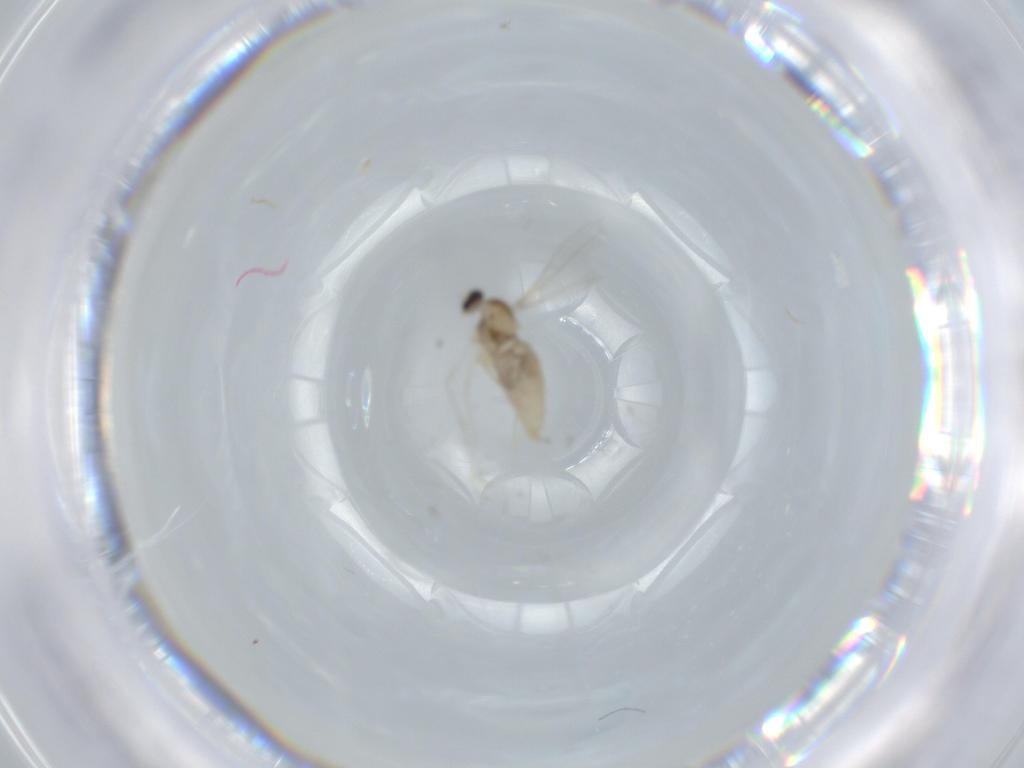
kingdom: Animalia
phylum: Arthropoda
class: Insecta
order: Diptera
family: Cecidomyiidae
